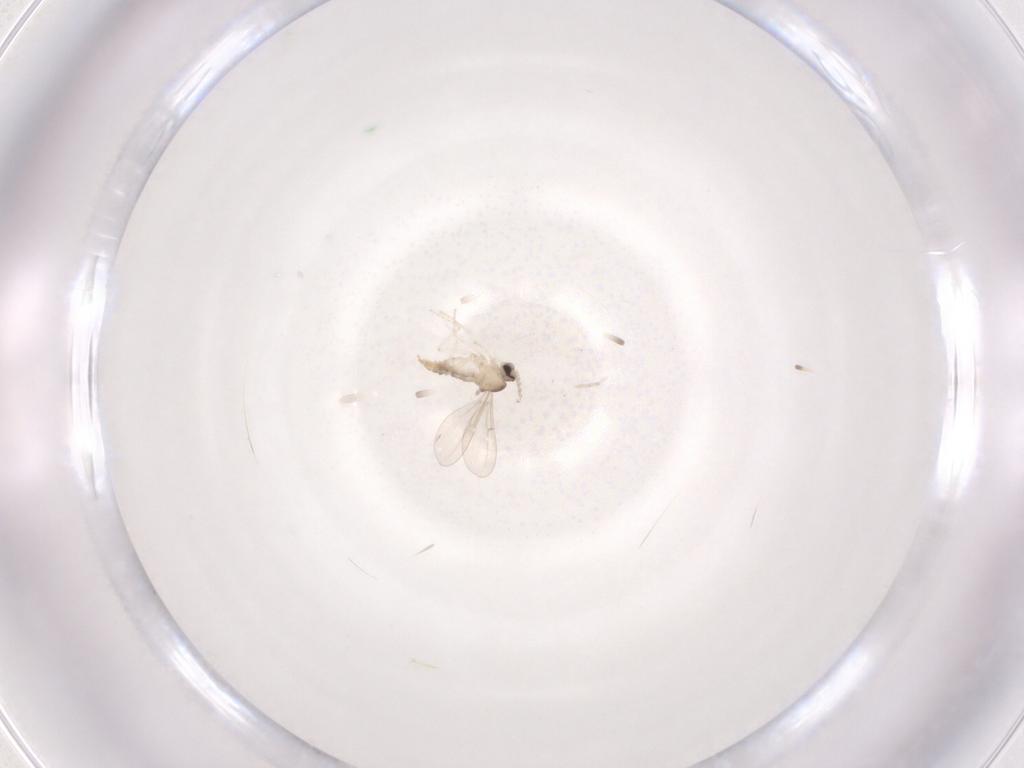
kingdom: Animalia
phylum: Arthropoda
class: Insecta
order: Diptera
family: Cecidomyiidae
